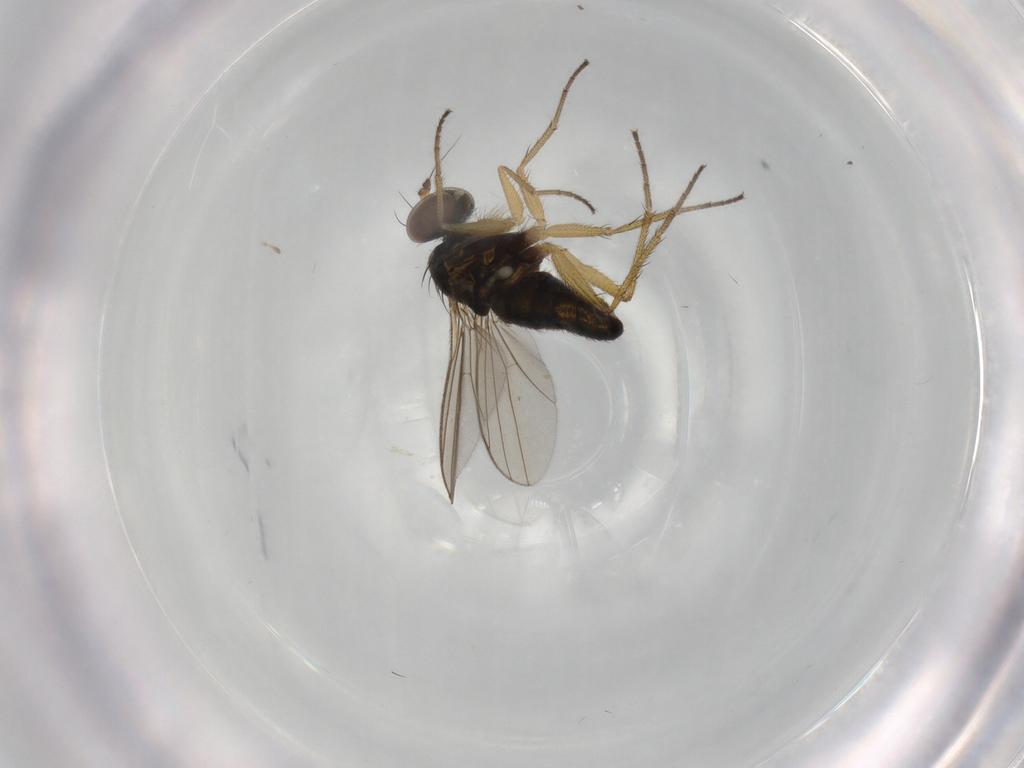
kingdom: Animalia
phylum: Arthropoda
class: Insecta
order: Diptera
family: Dolichopodidae
